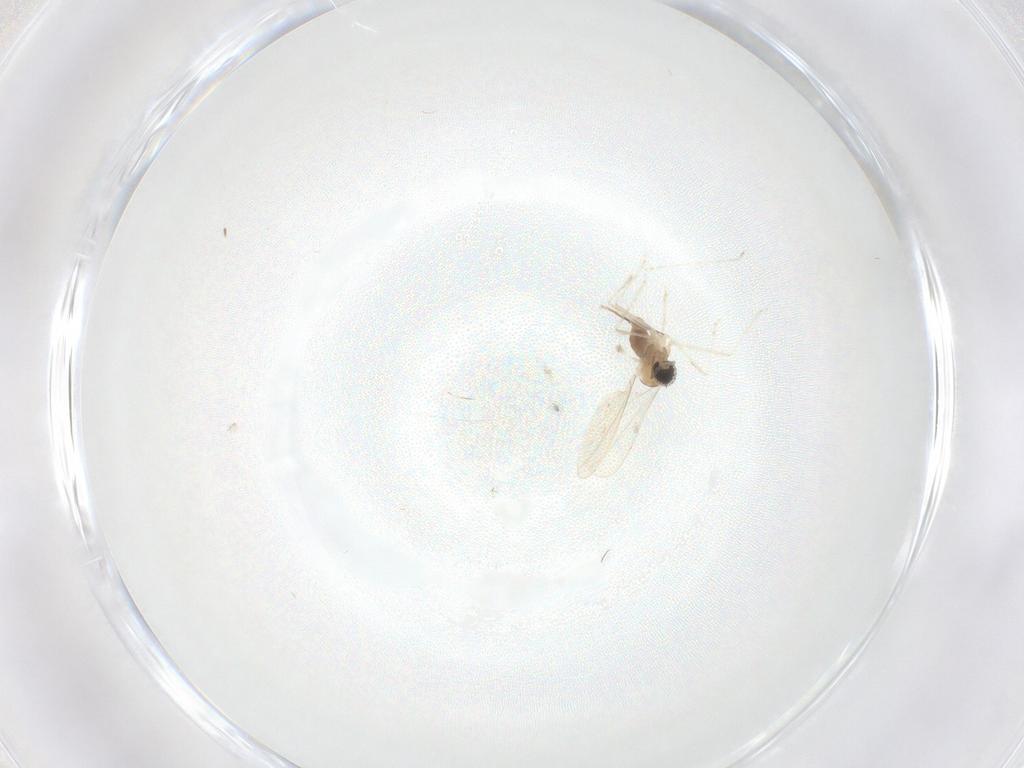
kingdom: Animalia
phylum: Arthropoda
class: Insecta
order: Diptera
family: Cecidomyiidae
